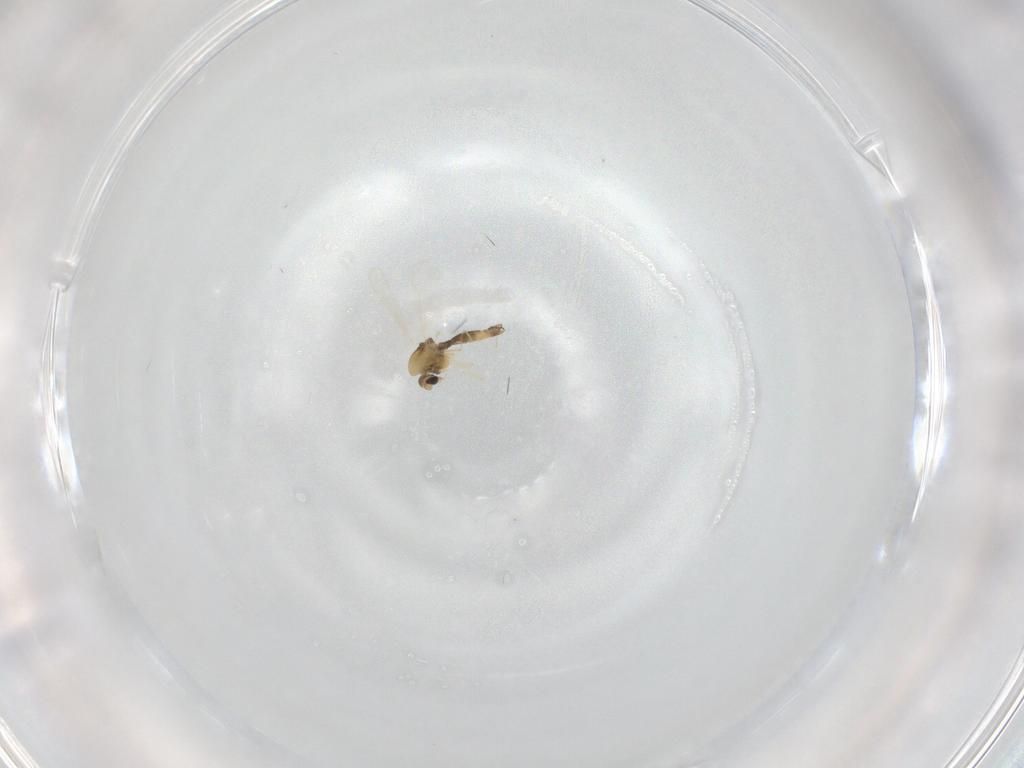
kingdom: Animalia
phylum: Arthropoda
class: Insecta
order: Diptera
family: Chironomidae
